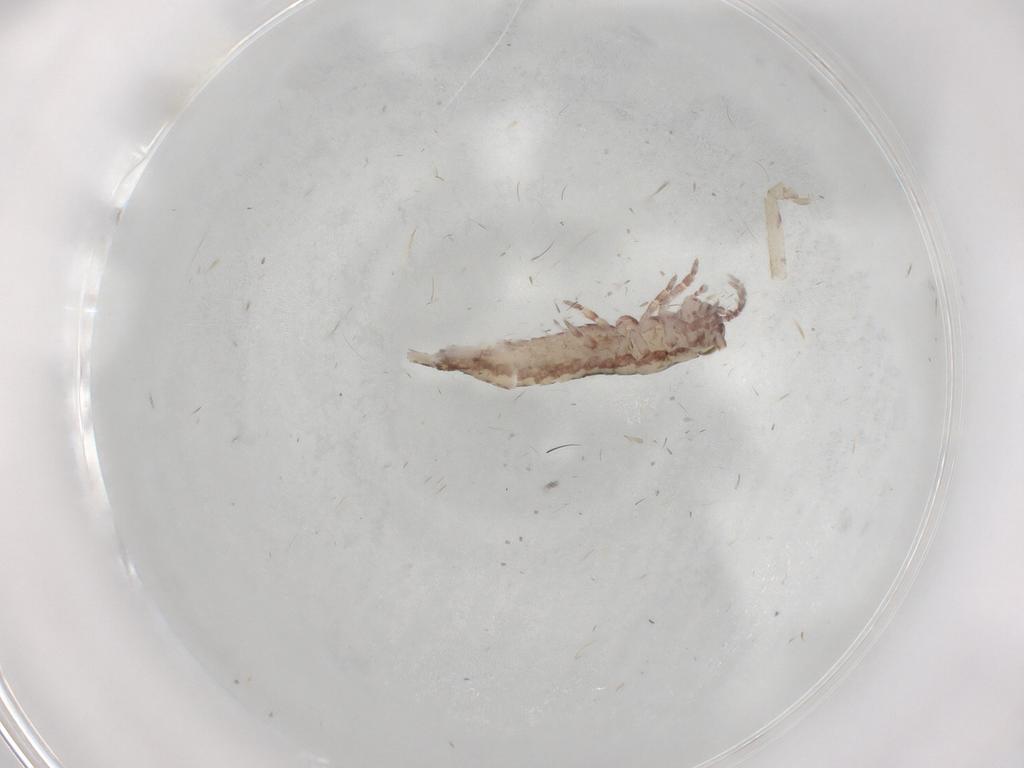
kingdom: Animalia
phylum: Arthropoda
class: Insecta
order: Archaeognatha
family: Machilidae
